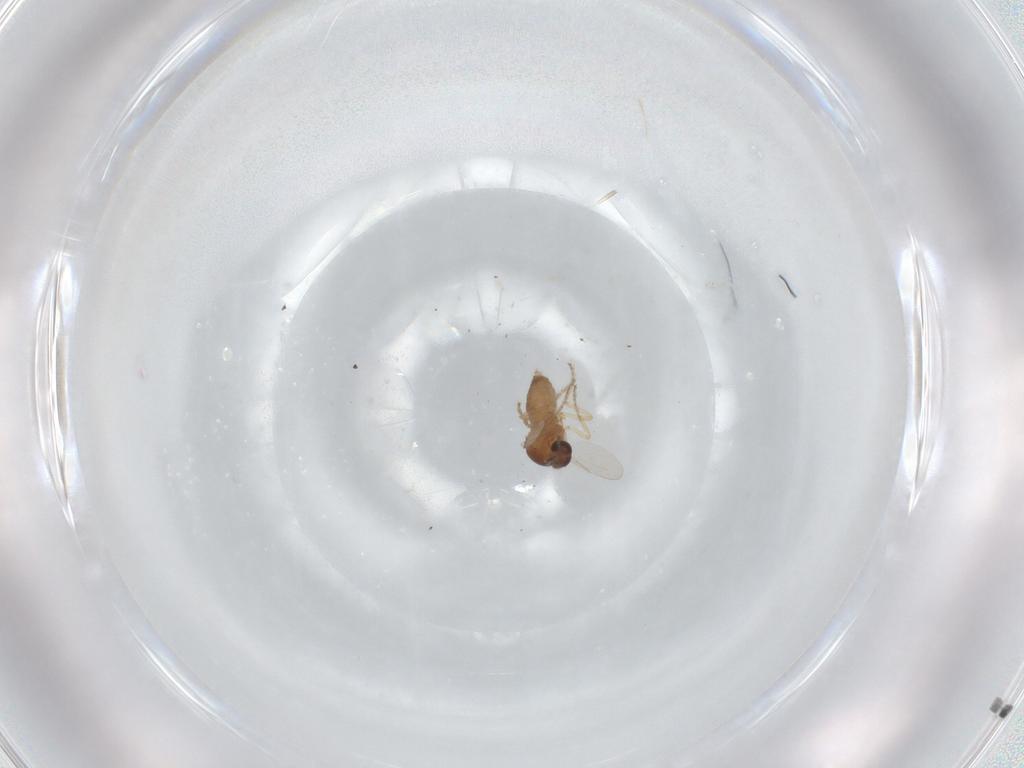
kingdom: Animalia
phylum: Arthropoda
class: Insecta
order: Diptera
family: Ceratopogonidae
